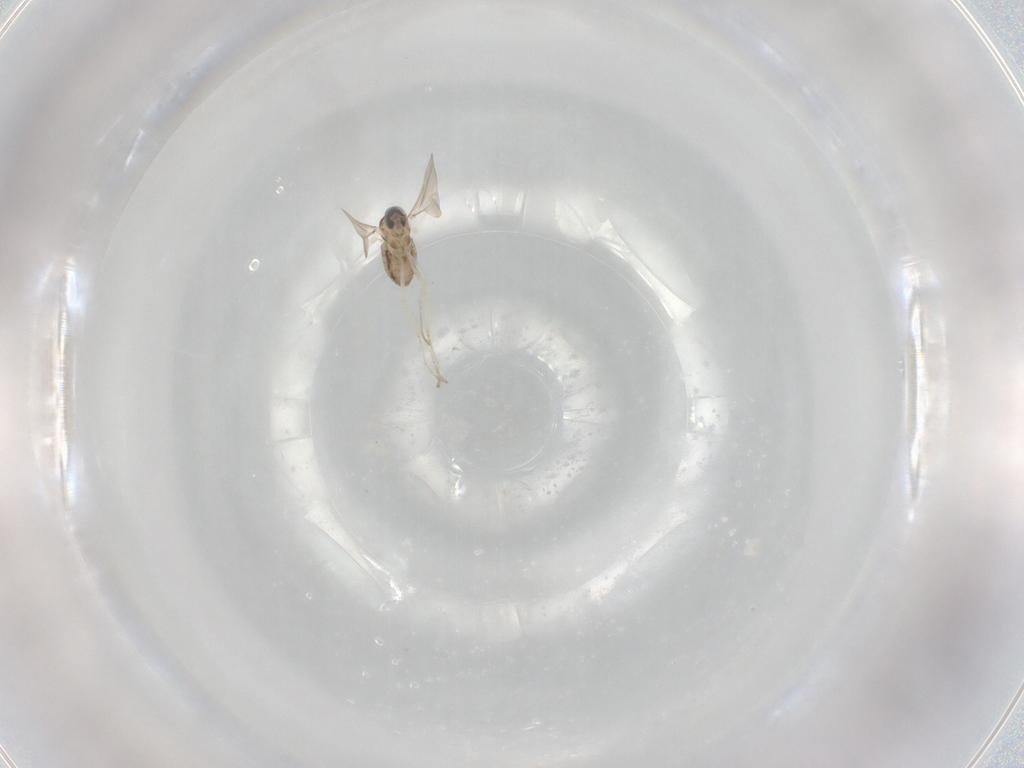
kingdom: Animalia
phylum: Arthropoda
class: Insecta
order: Diptera
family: Cecidomyiidae
